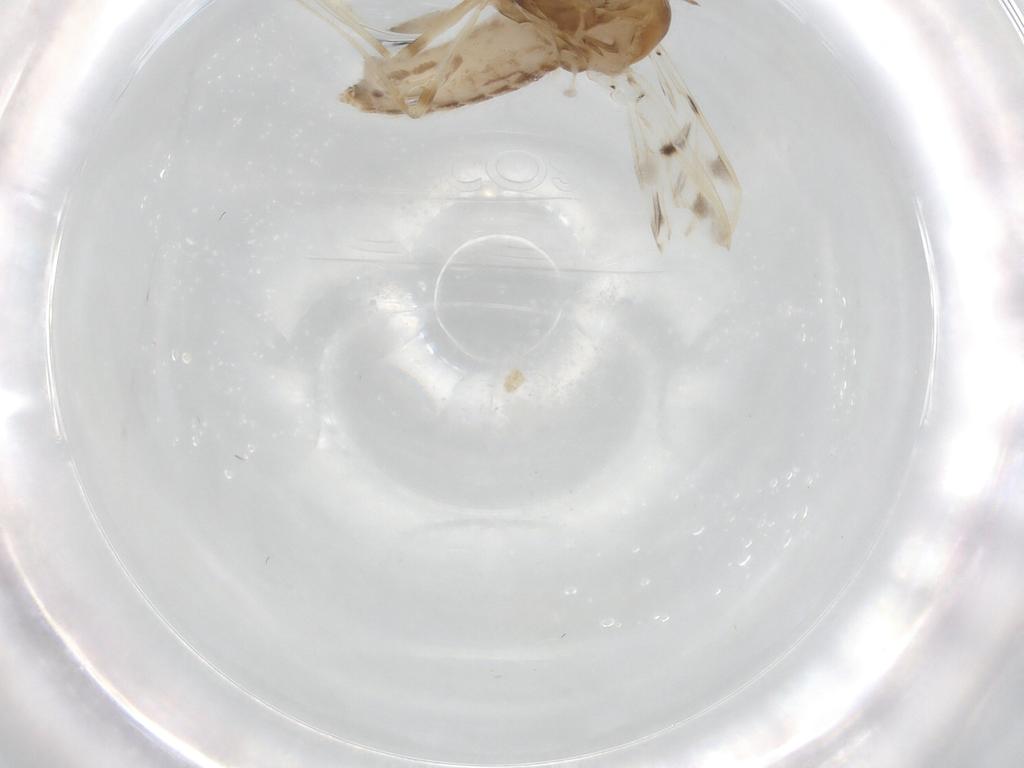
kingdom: Animalia
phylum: Arthropoda
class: Insecta
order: Diptera
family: Chironomidae
